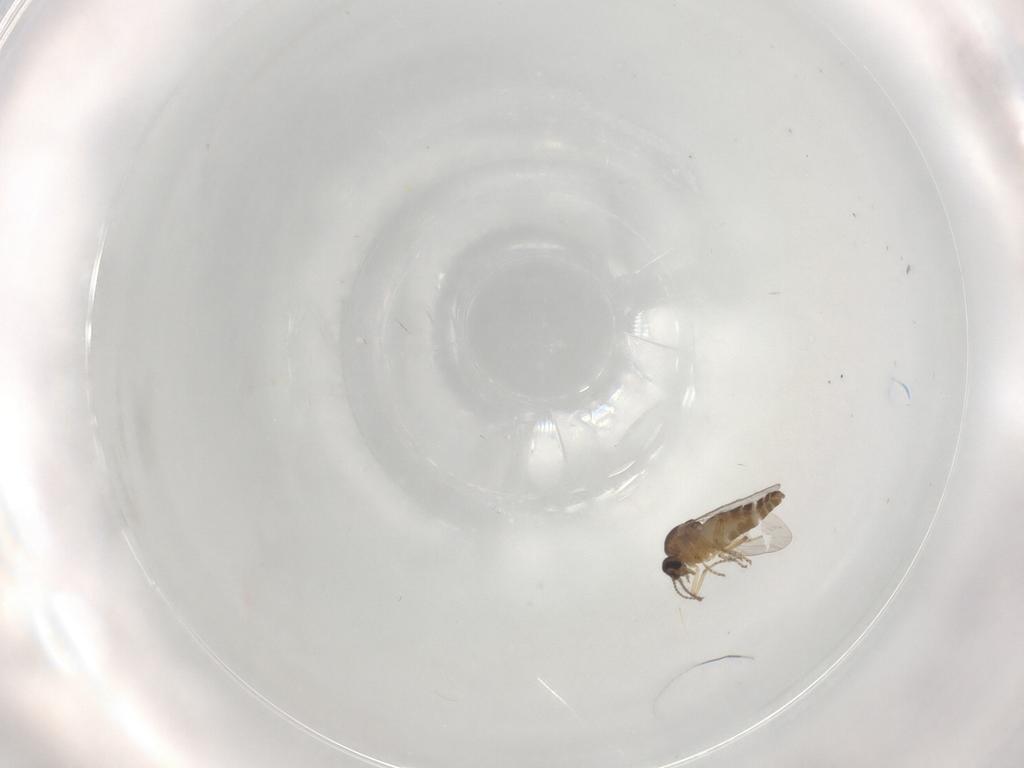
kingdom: Animalia
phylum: Arthropoda
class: Insecta
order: Diptera
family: Ceratopogonidae
